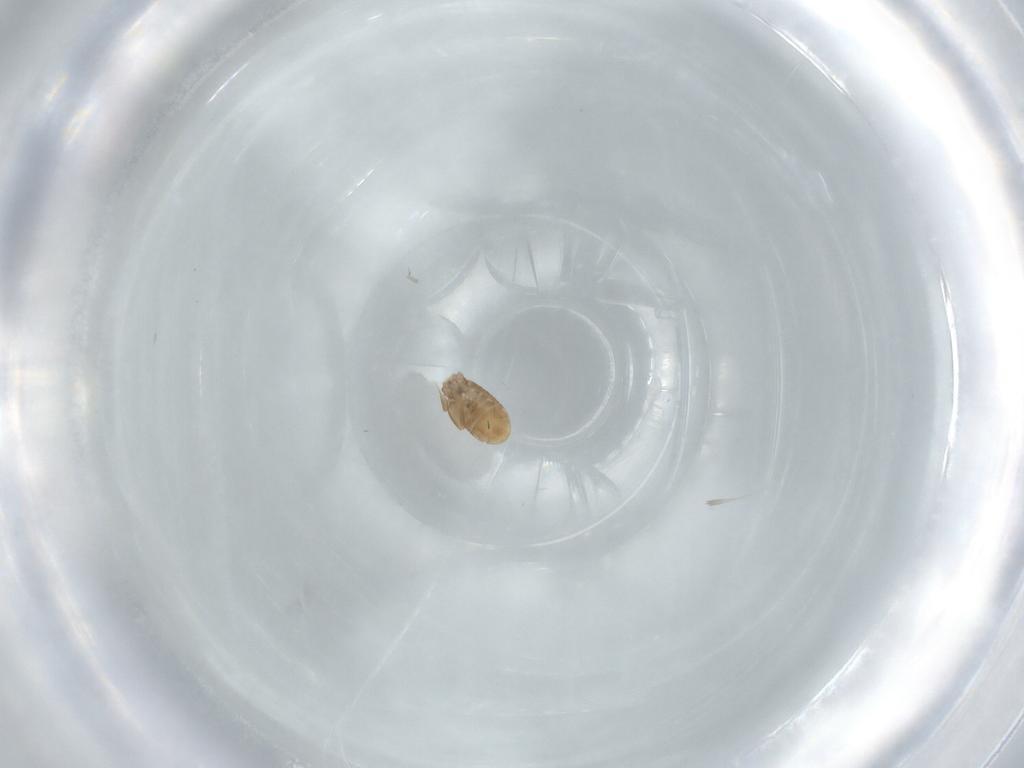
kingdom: Animalia
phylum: Arthropoda
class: Insecta
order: Psocodea
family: Liposcelididae
